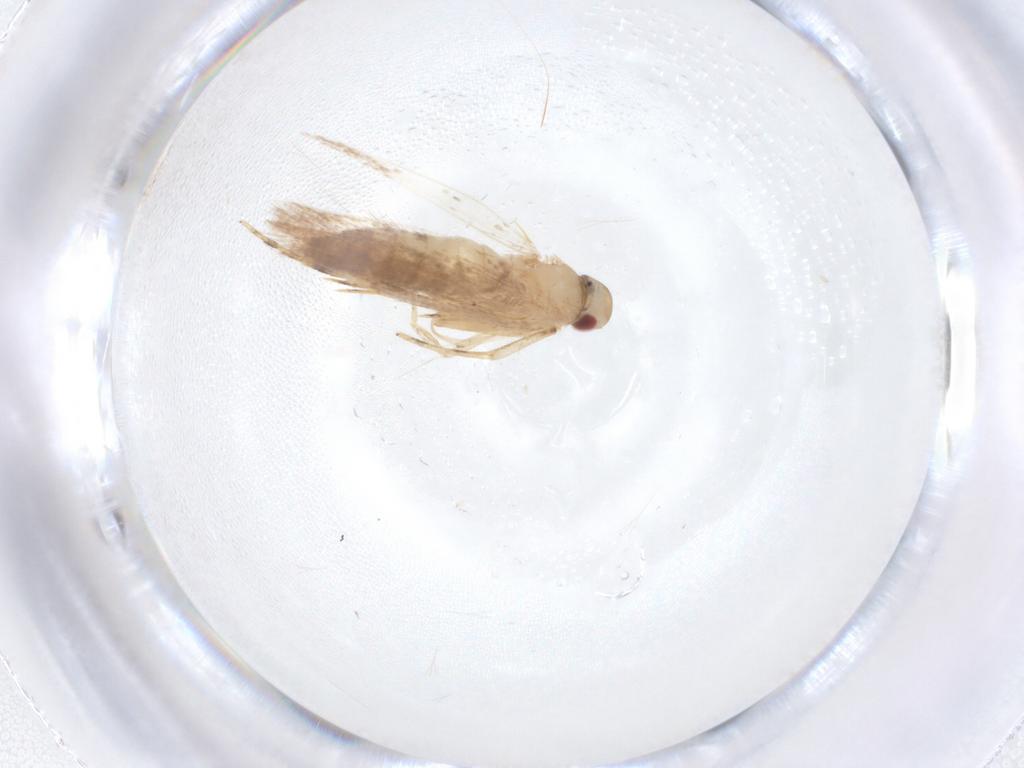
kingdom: Animalia
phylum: Arthropoda
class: Insecta
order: Lepidoptera
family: Cosmopterigidae
